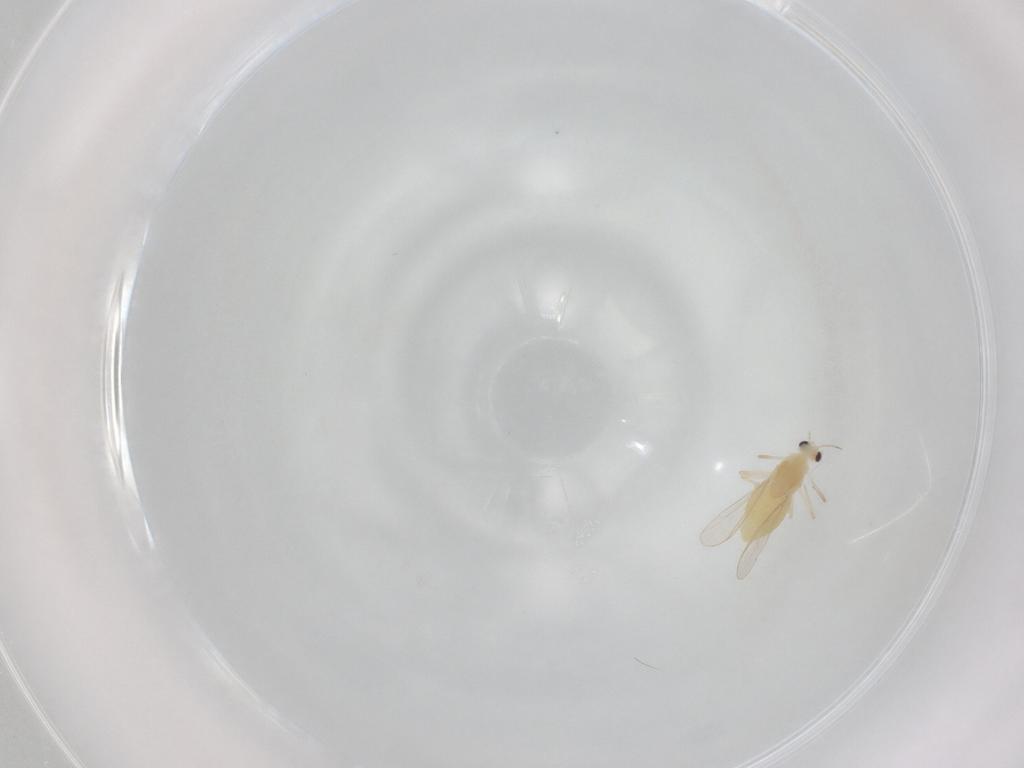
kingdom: Animalia
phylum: Arthropoda
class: Insecta
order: Diptera
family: Chironomidae
